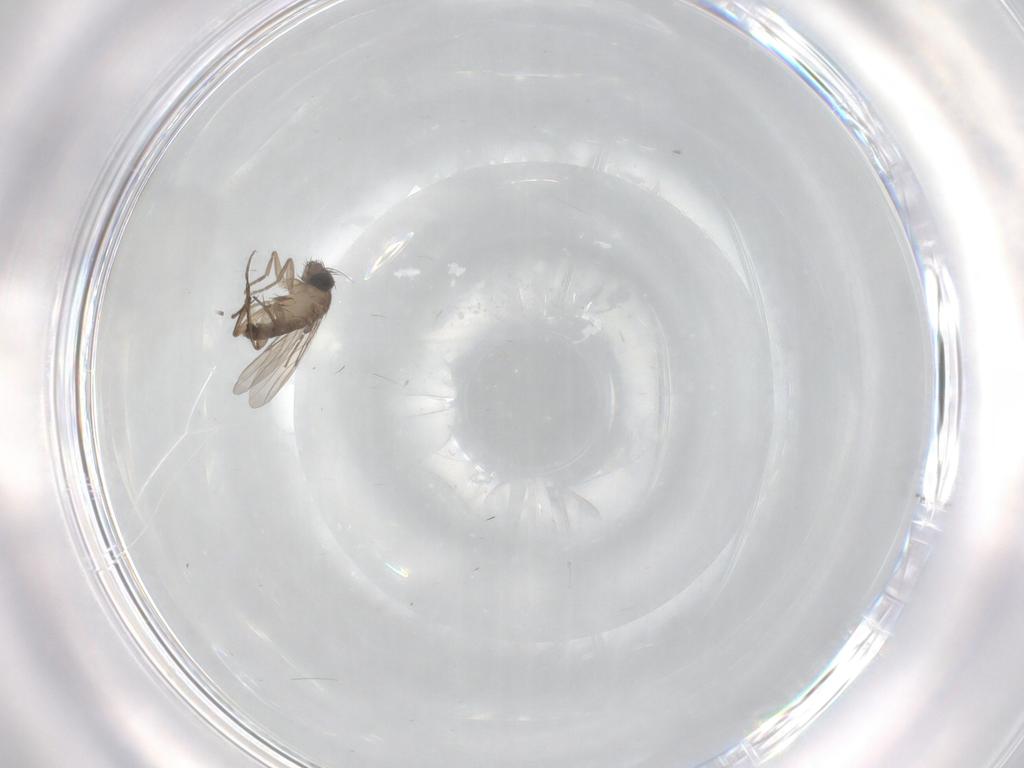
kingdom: Animalia
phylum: Arthropoda
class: Insecta
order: Diptera
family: Phoridae
